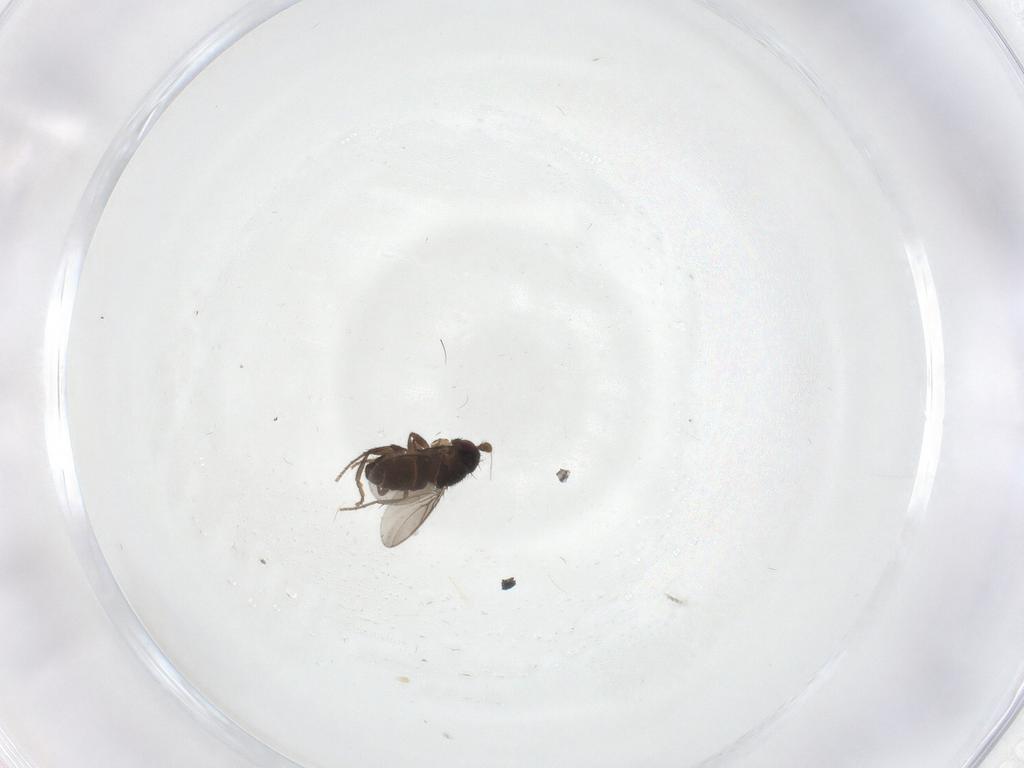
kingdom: Animalia
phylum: Arthropoda
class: Insecta
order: Diptera
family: Sphaeroceridae
